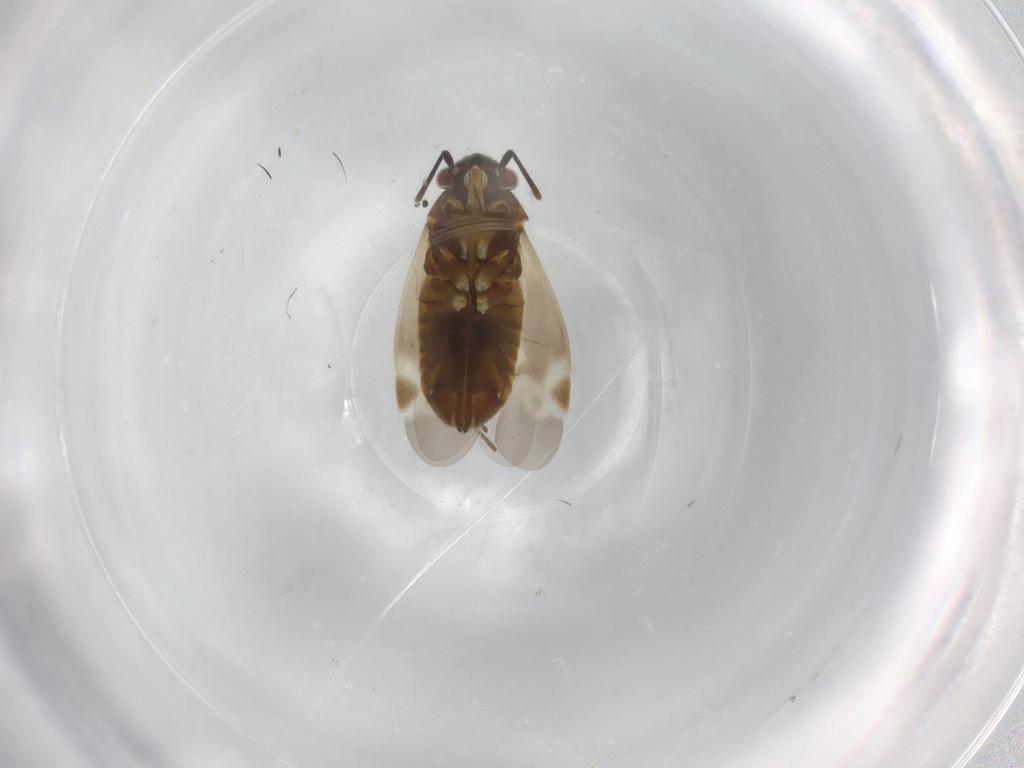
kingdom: Animalia
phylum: Arthropoda
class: Insecta
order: Hemiptera
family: Miridae
